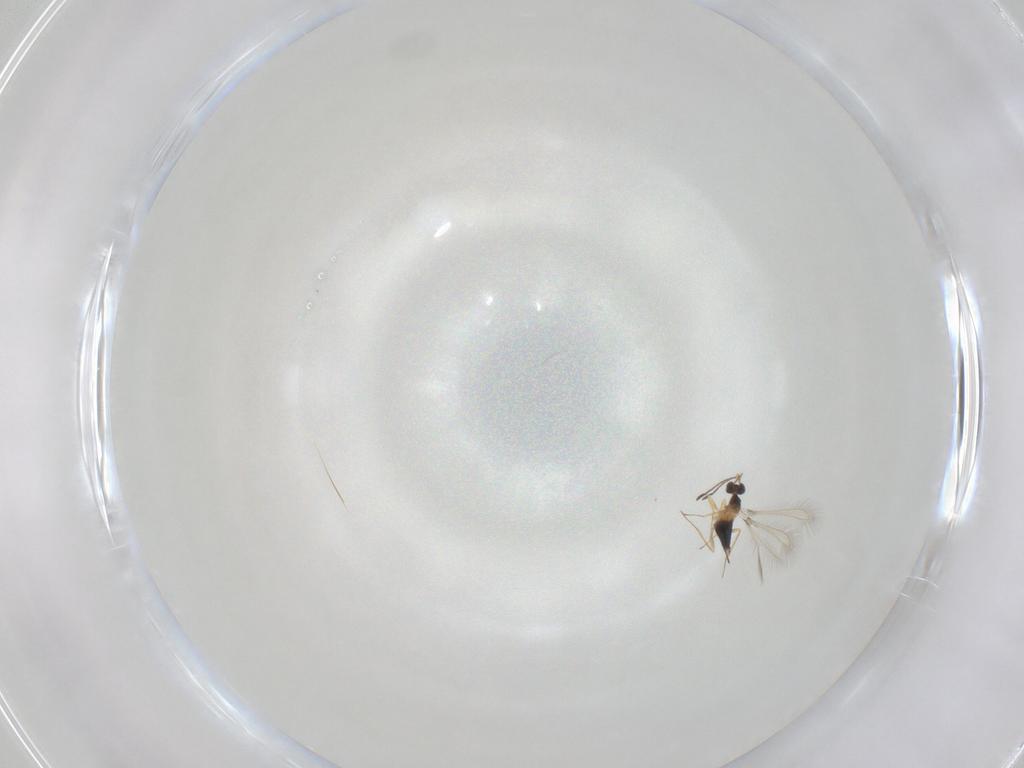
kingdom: Animalia
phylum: Arthropoda
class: Insecta
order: Hymenoptera
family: Mymaridae
